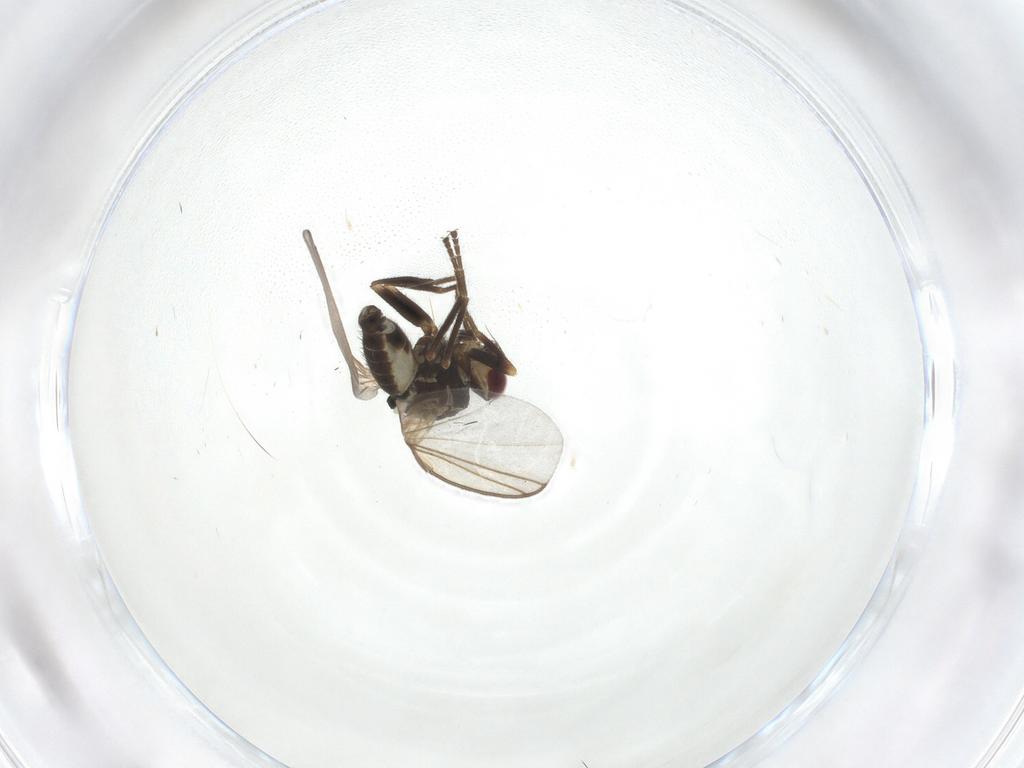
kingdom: Animalia
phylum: Arthropoda
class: Insecta
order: Diptera
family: Agromyzidae
